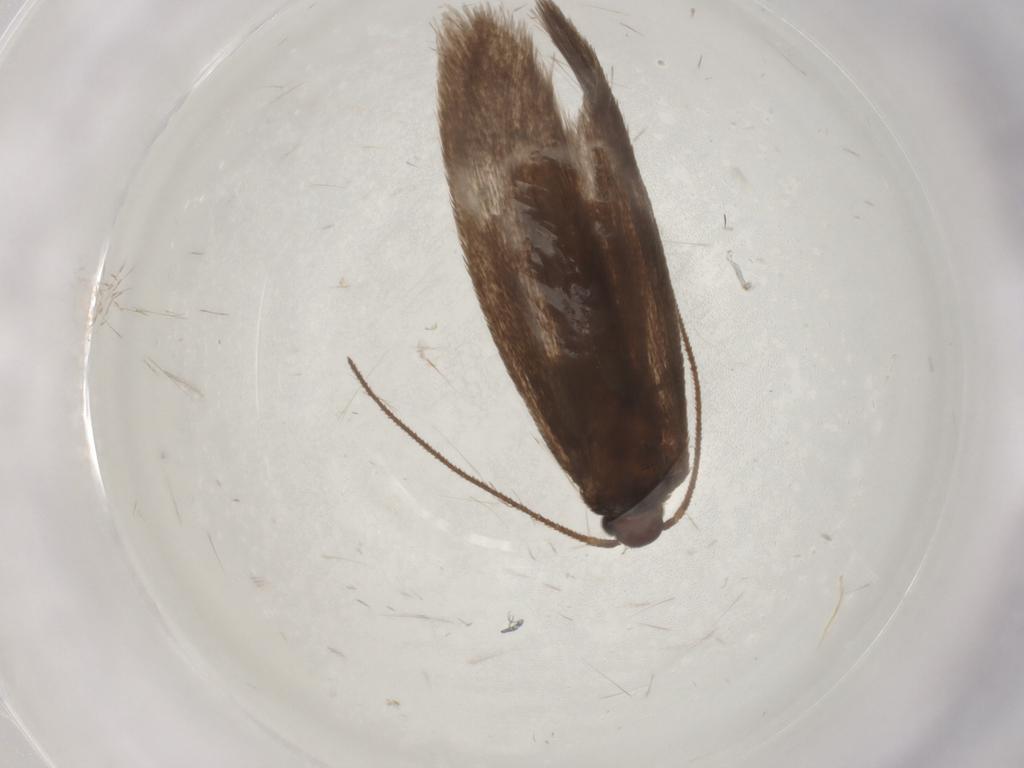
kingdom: Animalia
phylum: Arthropoda
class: Insecta
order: Lepidoptera
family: Limacodidae
